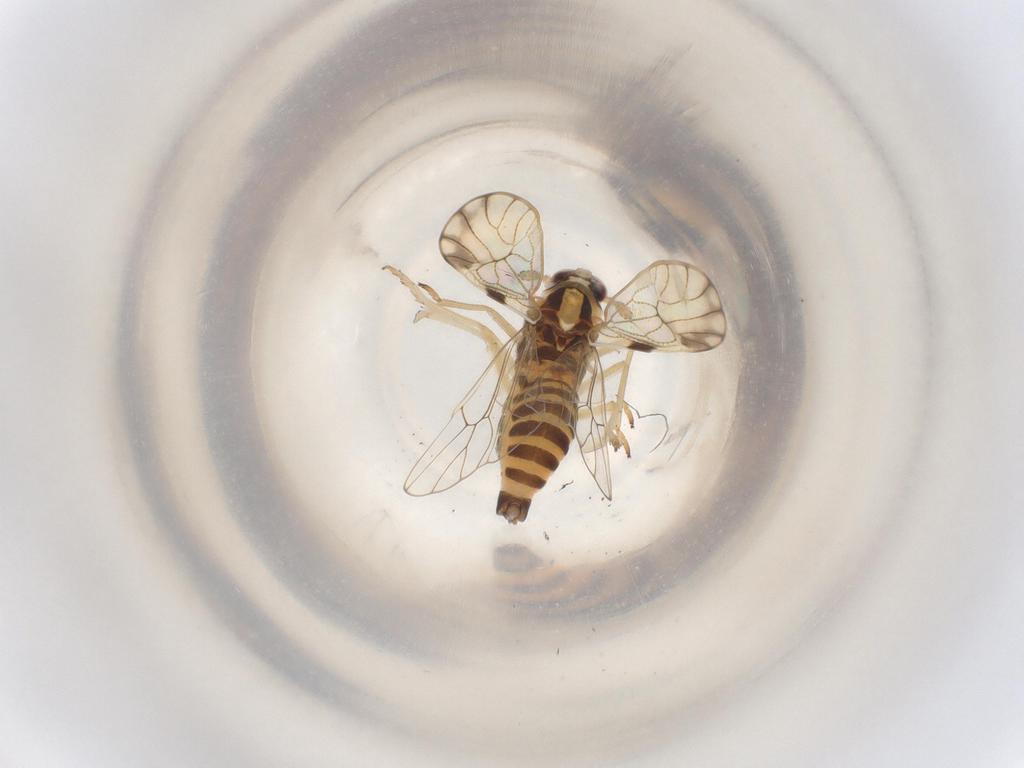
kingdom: Animalia
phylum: Arthropoda
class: Insecta
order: Hemiptera
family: Delphacidae
